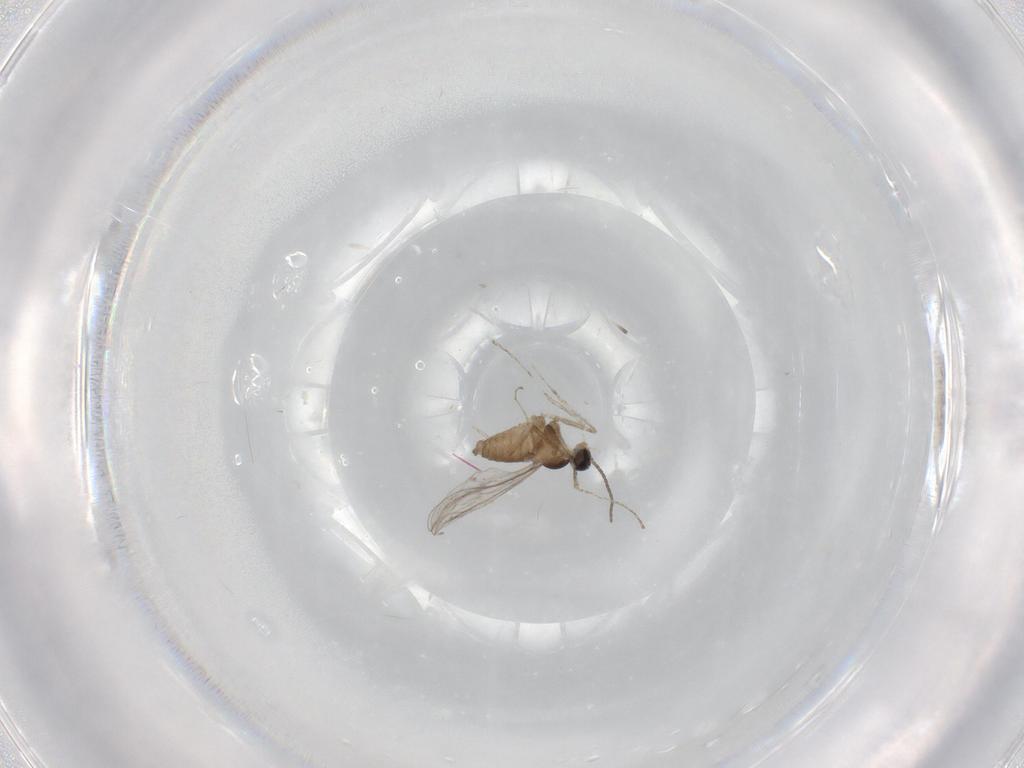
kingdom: Animalia
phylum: Arthropoda
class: Insecta
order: Diptera
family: Cecidomyiidae
